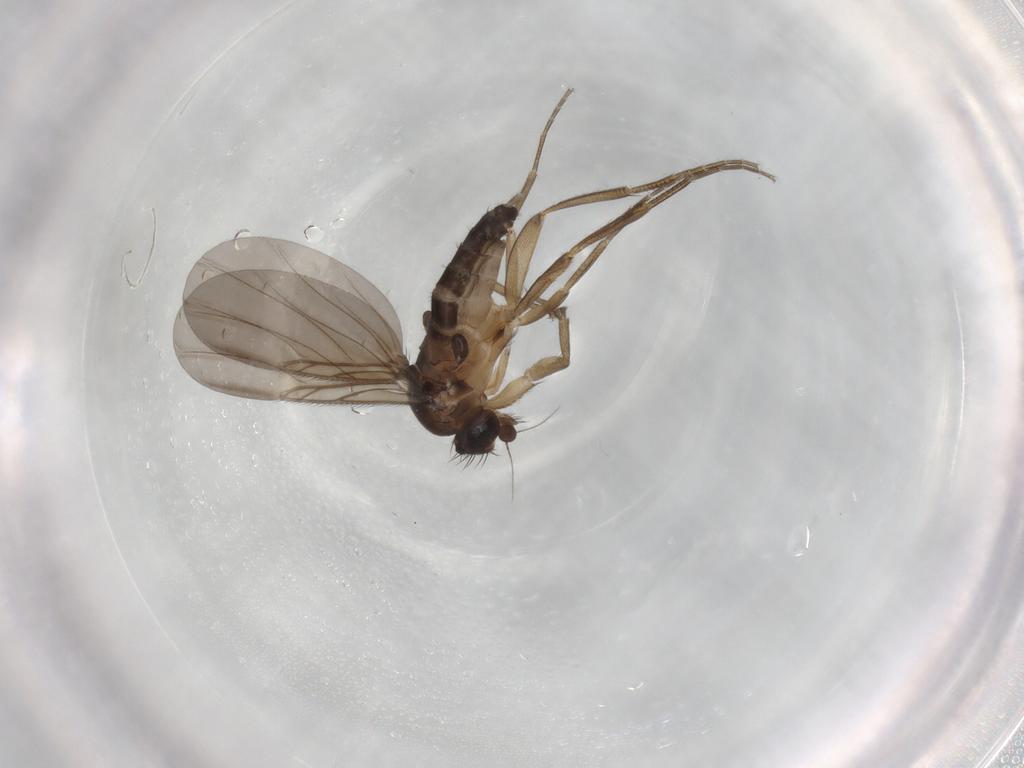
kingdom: Animalia
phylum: Arthropoda
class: Insecta
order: Diptera
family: Phoridae
